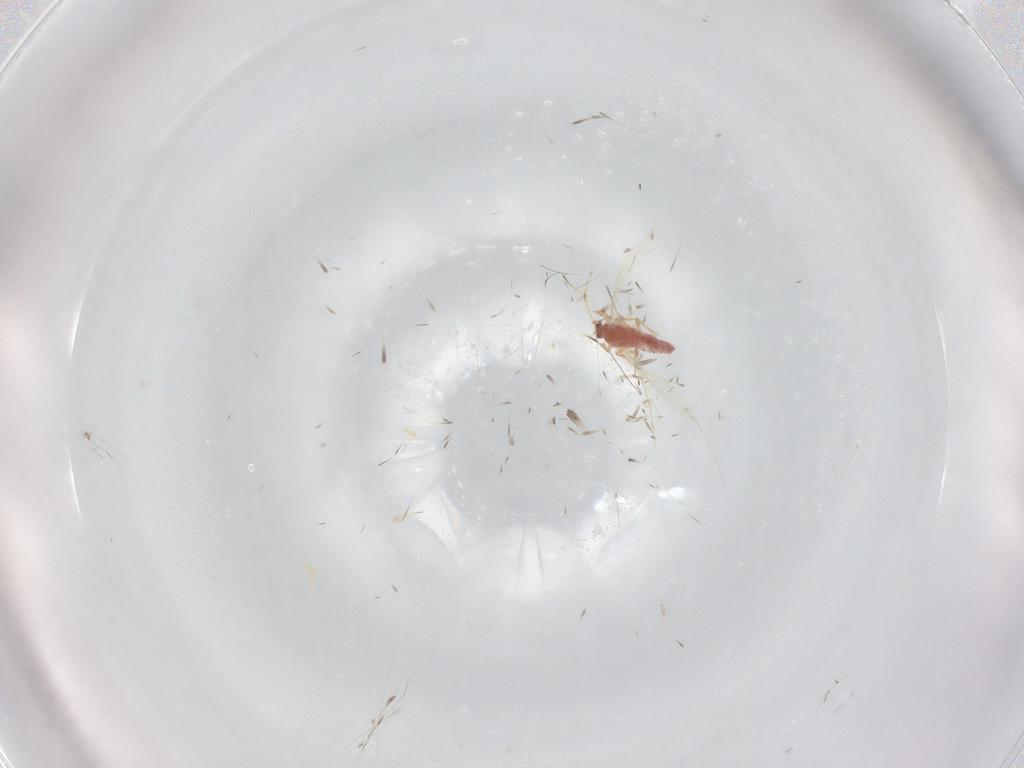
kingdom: Animalia
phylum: Arthropoda
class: Insecta
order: Hemiptera
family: Pseudococcidae
